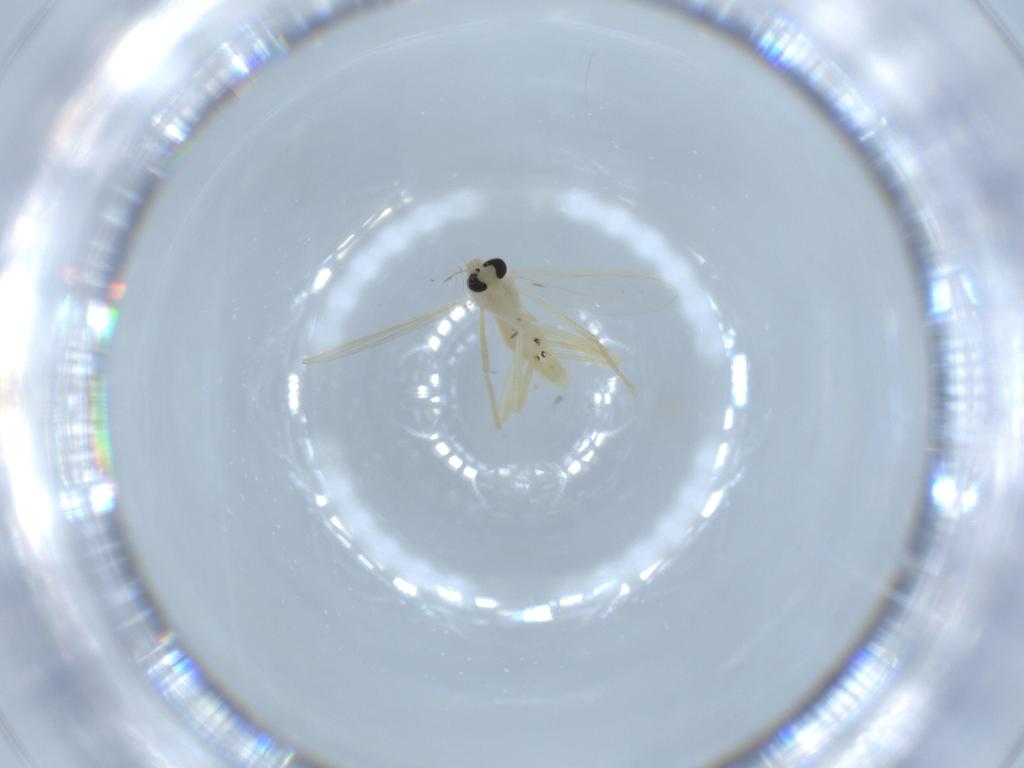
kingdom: Animalia
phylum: Arthropoda
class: Insecta
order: Diptera
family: Chironomidae
